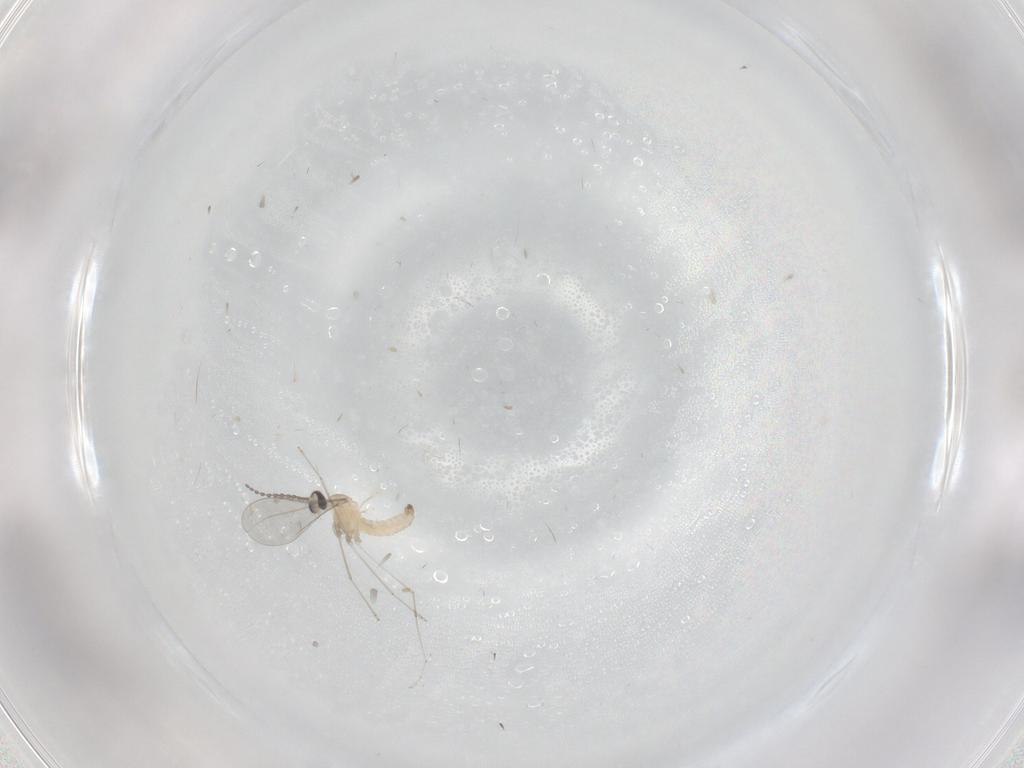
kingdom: Animalia
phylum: Arthropoda
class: Insecta
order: Diptera
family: Cecidomyiidae
